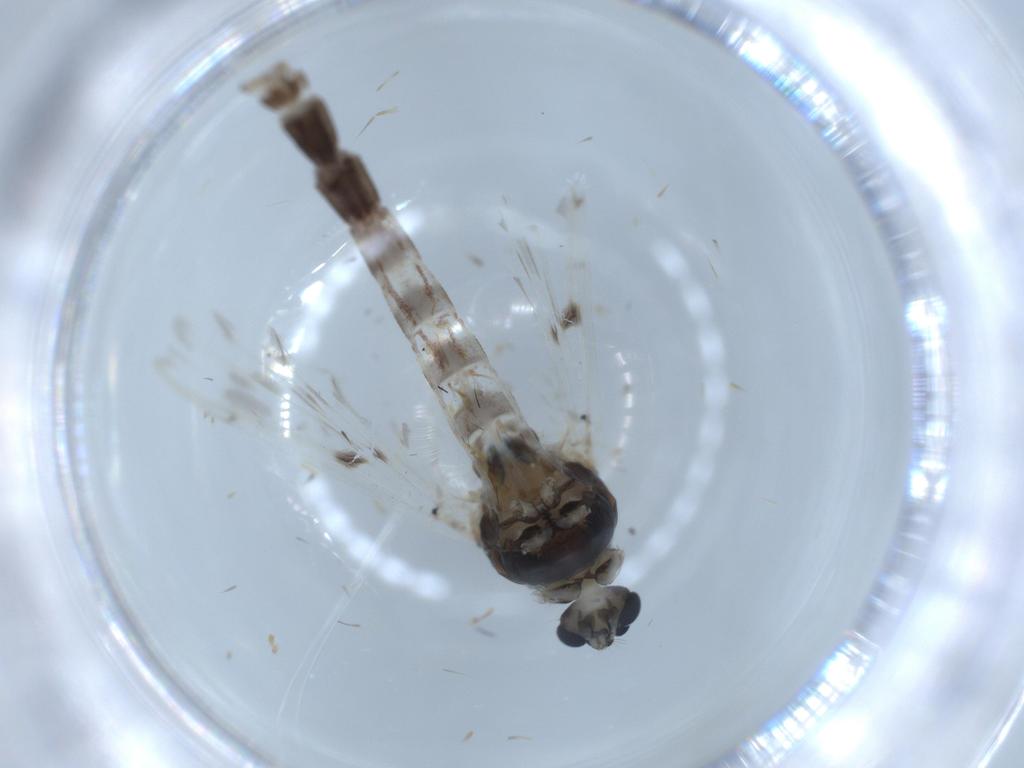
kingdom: Animalia
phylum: Arthropoda
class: Insecta
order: Diptera
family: Chironomidae
